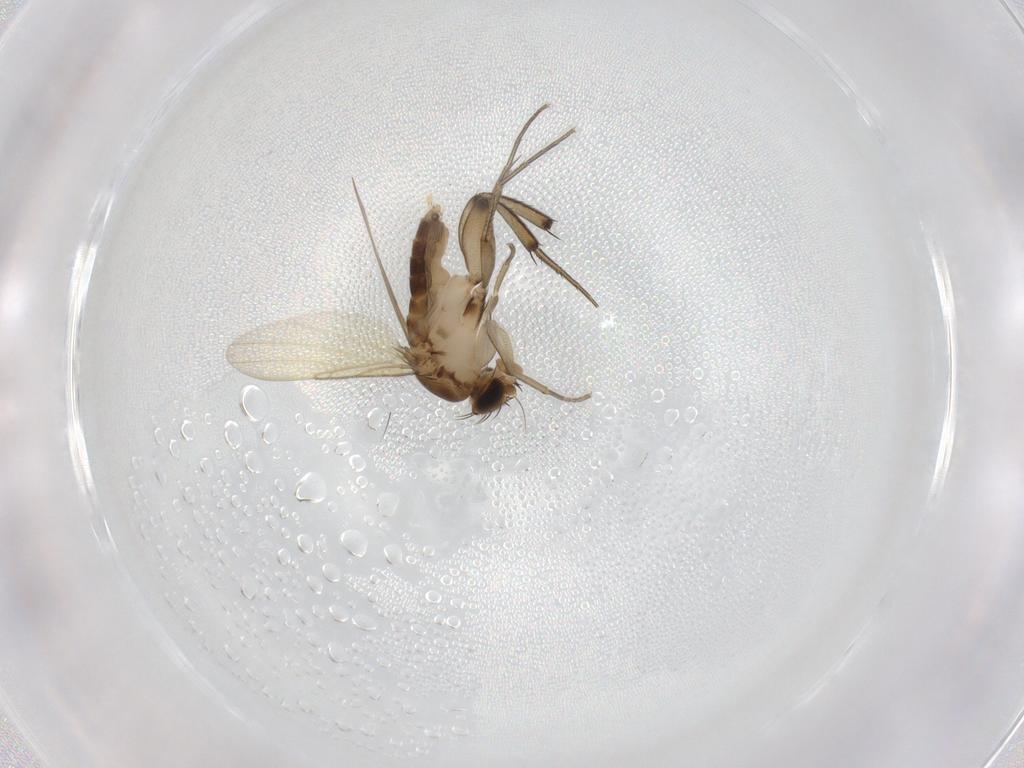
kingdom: Animalia
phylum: Arthropoda
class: Insecta
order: Diptera
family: Phoridae
